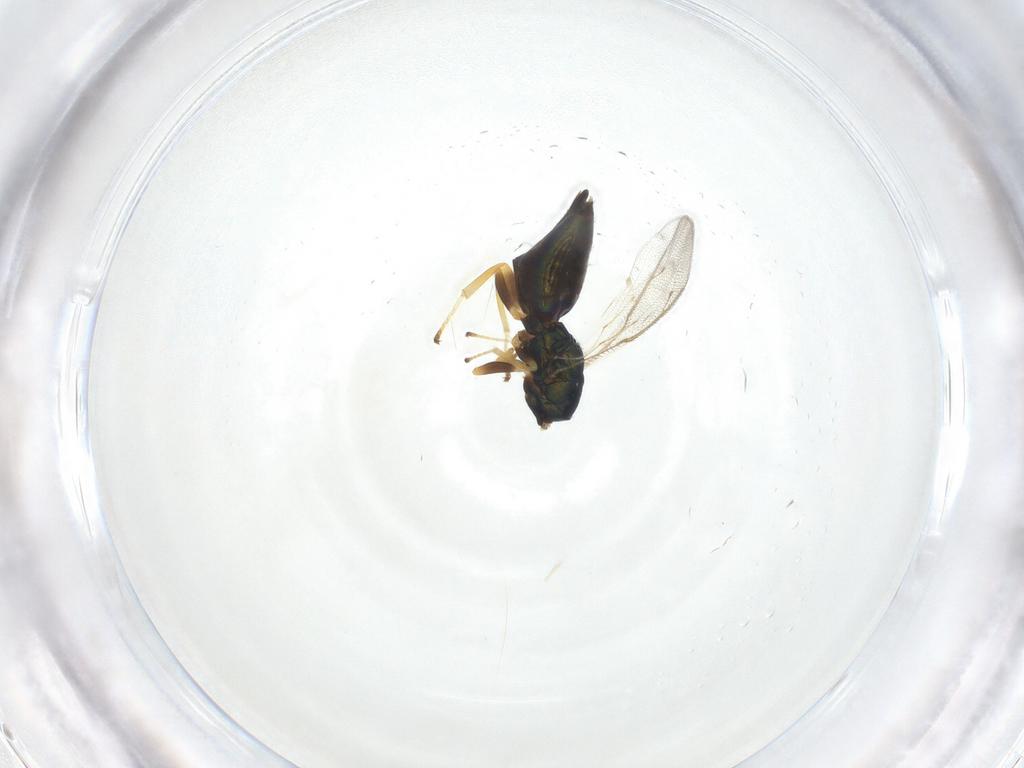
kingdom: Animalia
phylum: Arthropoda
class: Insecta
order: Hymenoptera
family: Pteromalidae
